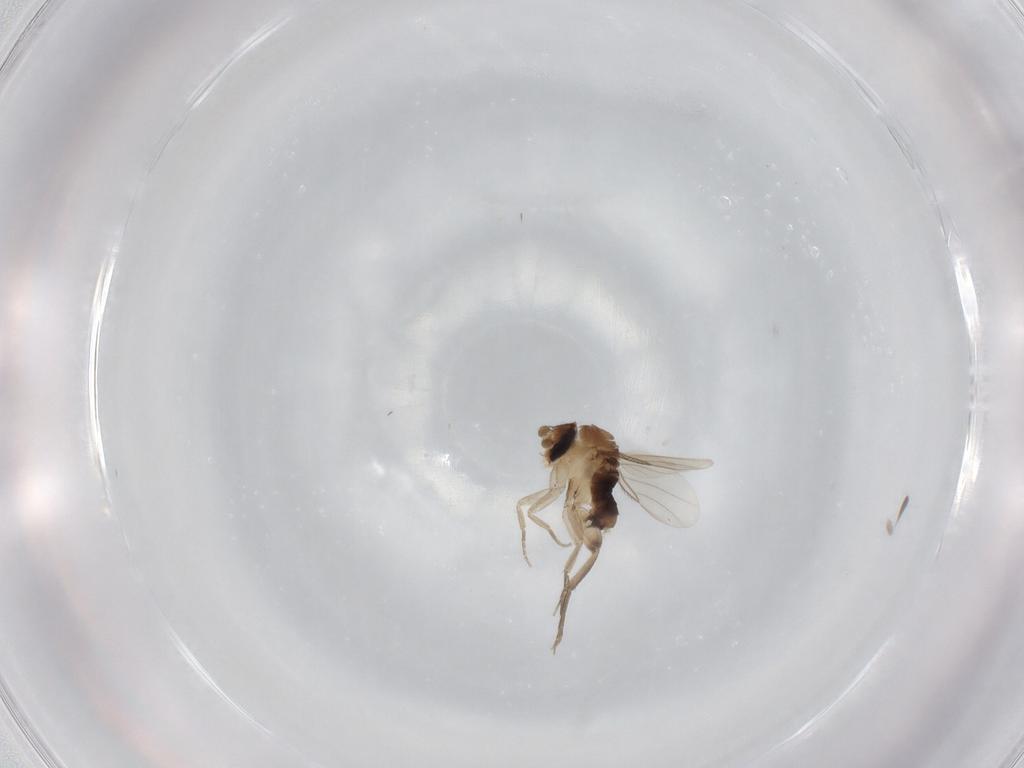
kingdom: Animalia
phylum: Arthropoda
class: Insecta
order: Diptera
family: Phoridae
